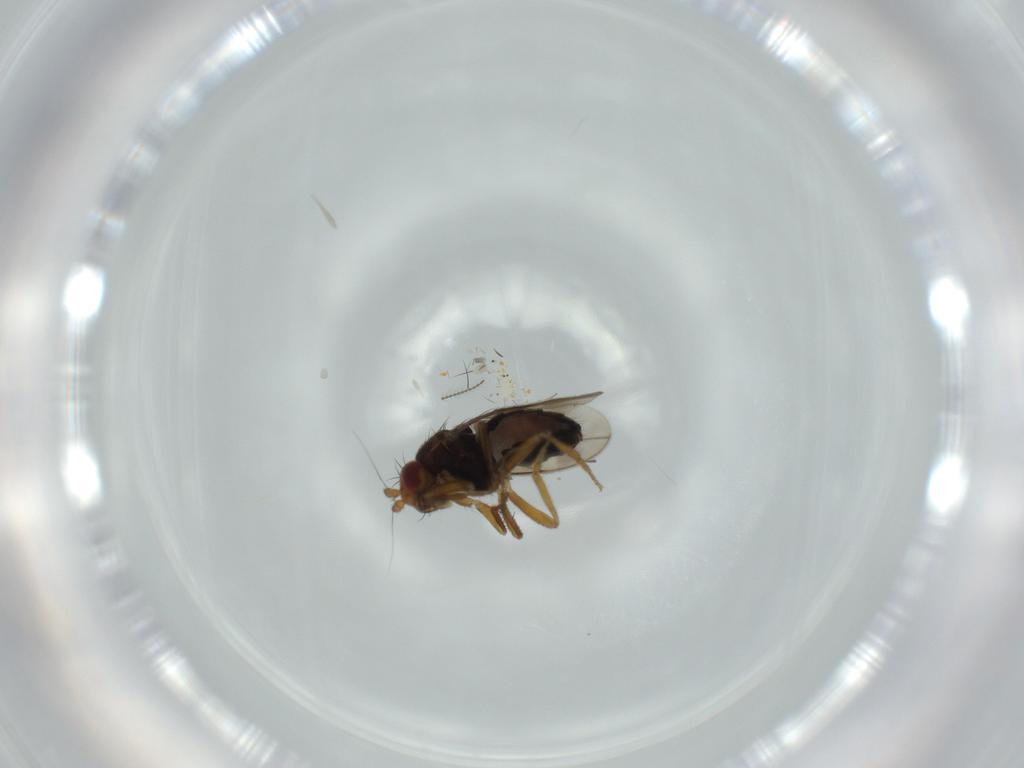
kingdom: Animalia
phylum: Arthropoda
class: Insecta
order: Diptera
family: Sphaeroceridae
